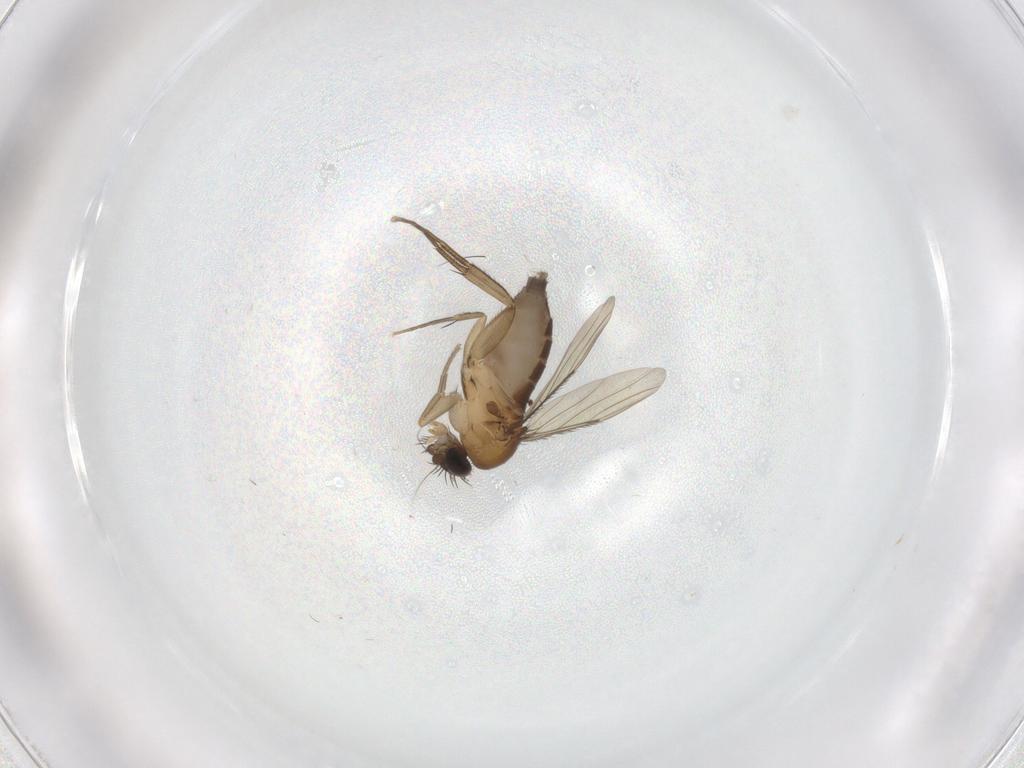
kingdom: Animalia
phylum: Arthropoda
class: Insecta
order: Diptera
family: Phoridae
